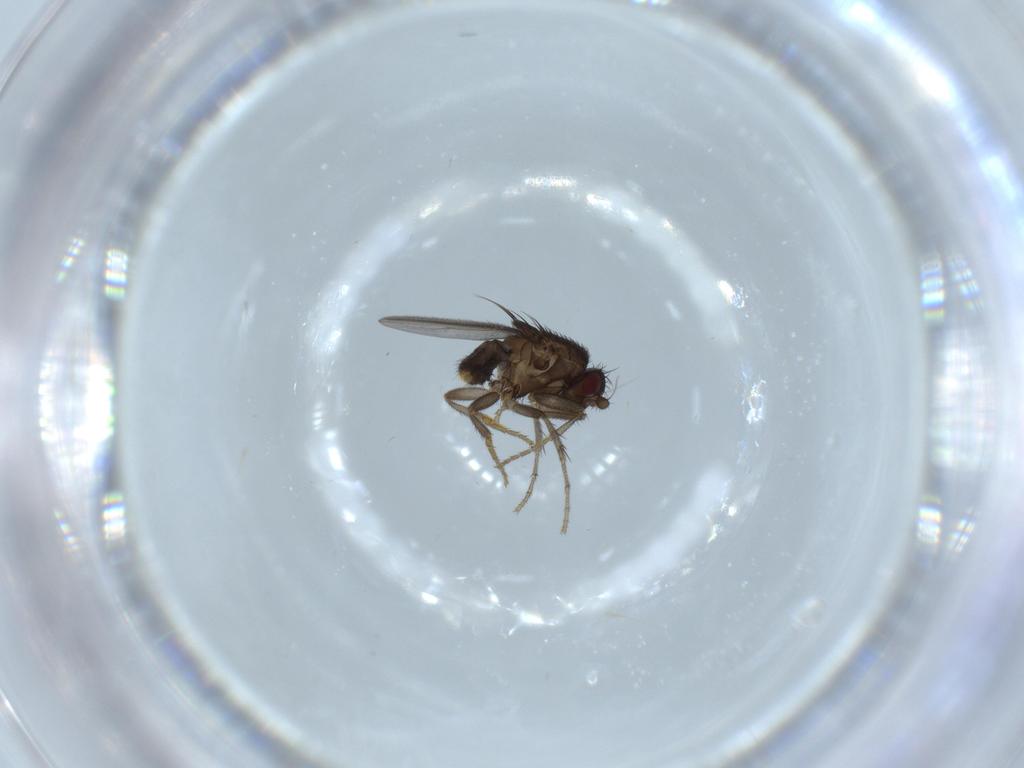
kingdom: Animalia
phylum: Arthropoda
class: Insecta
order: Diptera
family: Sphaeroceridae
